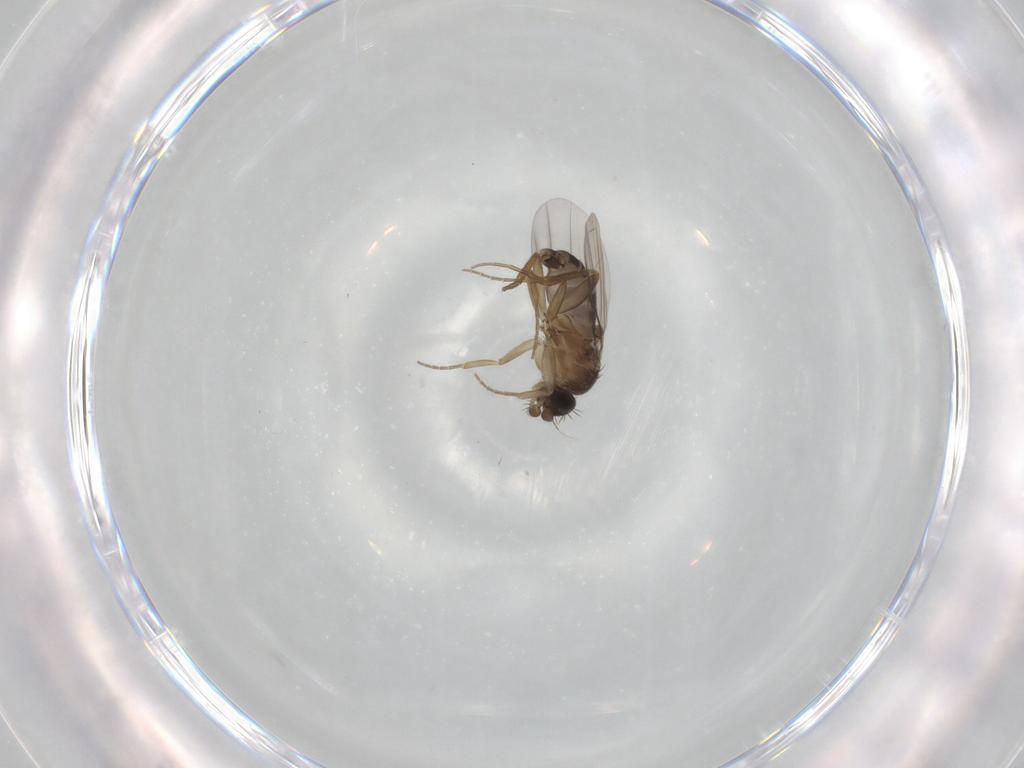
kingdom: Animalia
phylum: Arthropoda
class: Insecta
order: Diptera
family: Phoridae
